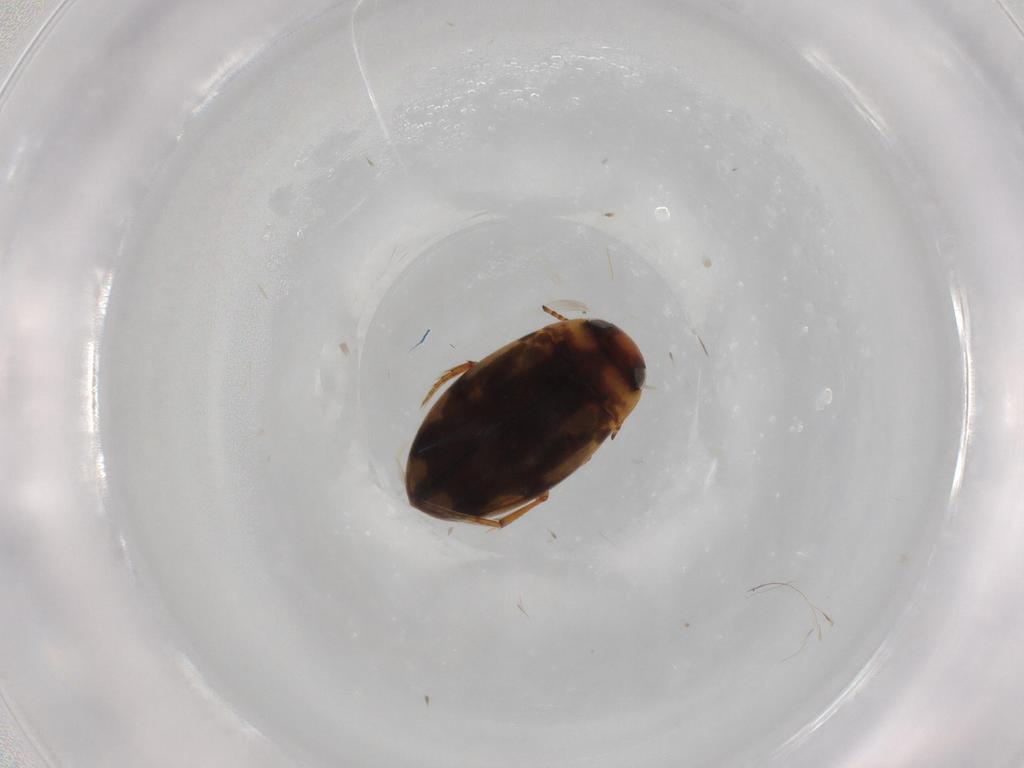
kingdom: Animalia
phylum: Arthropoda
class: Insecta
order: Coleoptera
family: Dytiscidae
